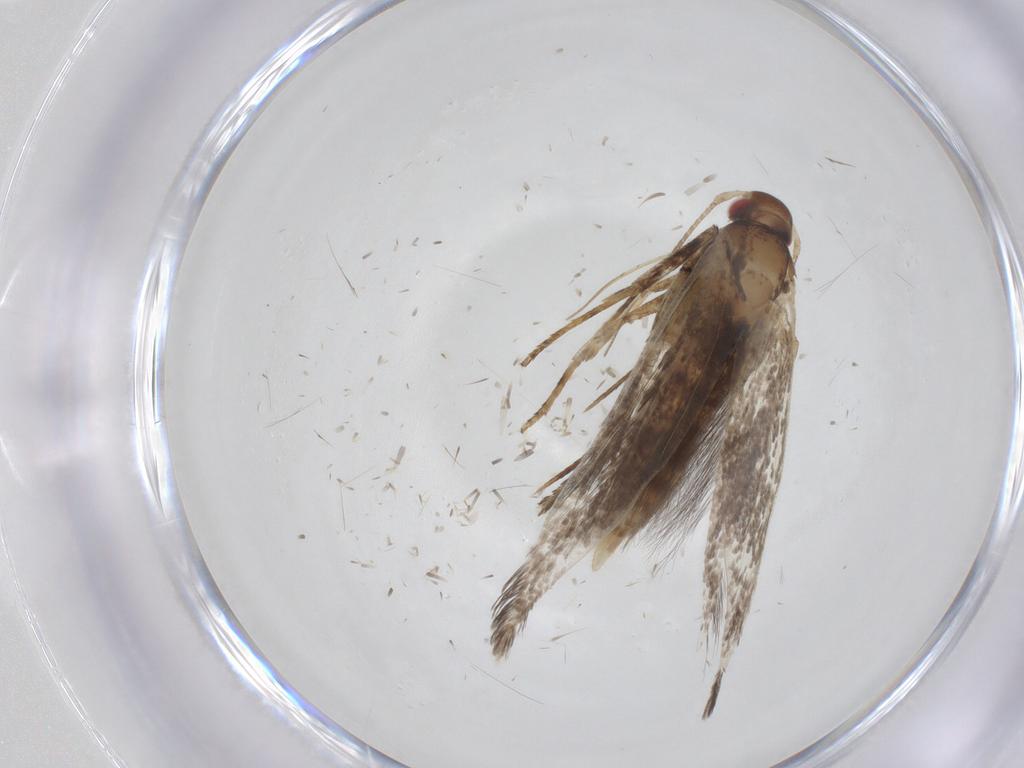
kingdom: Animalia
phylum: Arthropoda
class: Insecta
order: Lepidoptera
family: Gelechiidae
